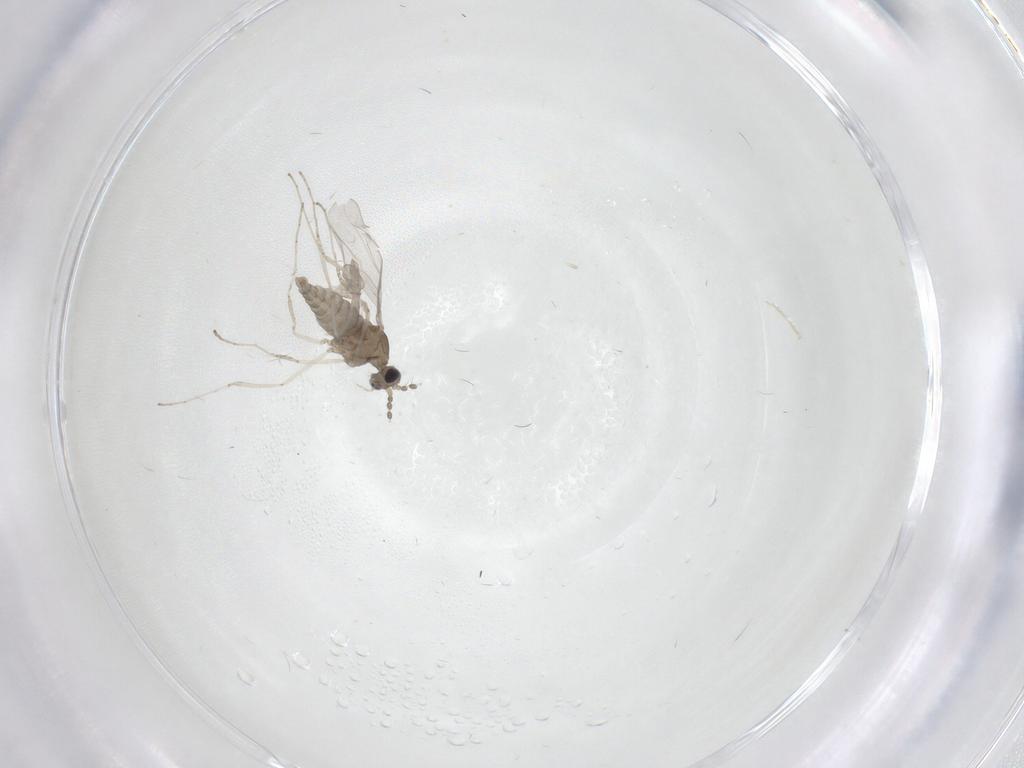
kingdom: Animalia
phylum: Arthropoda
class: Insecta
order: Diptera
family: Cecidomyiidae
